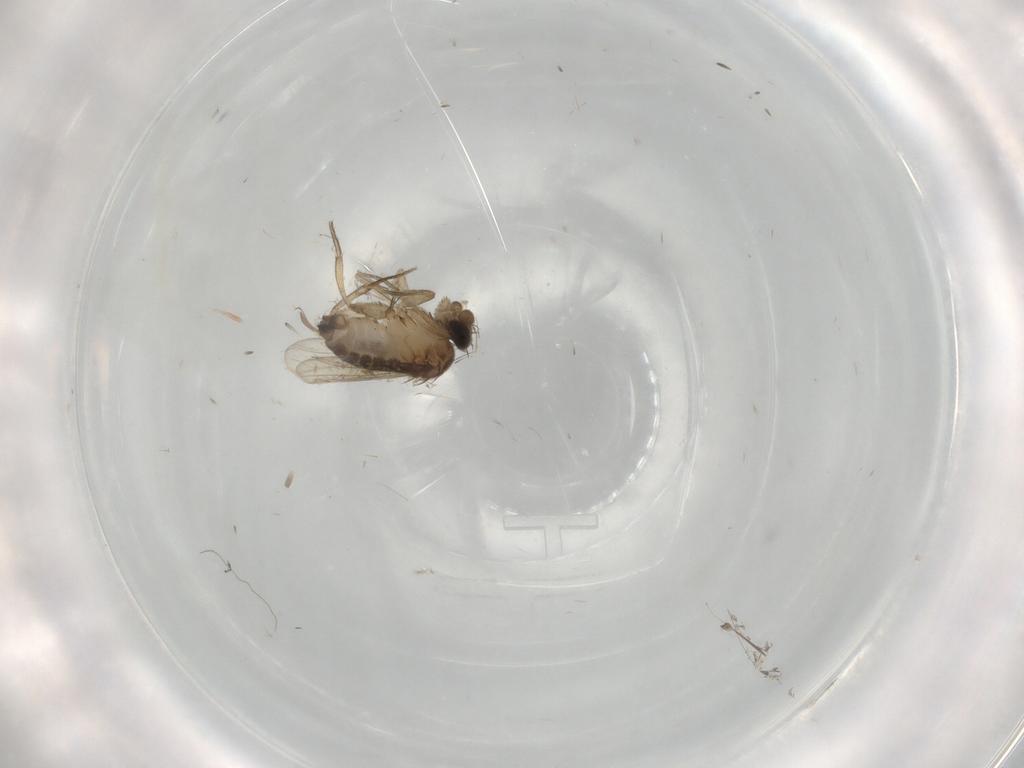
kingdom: Animalia
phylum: Arthropoda
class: Insecta
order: Diptera
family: Phoridae
